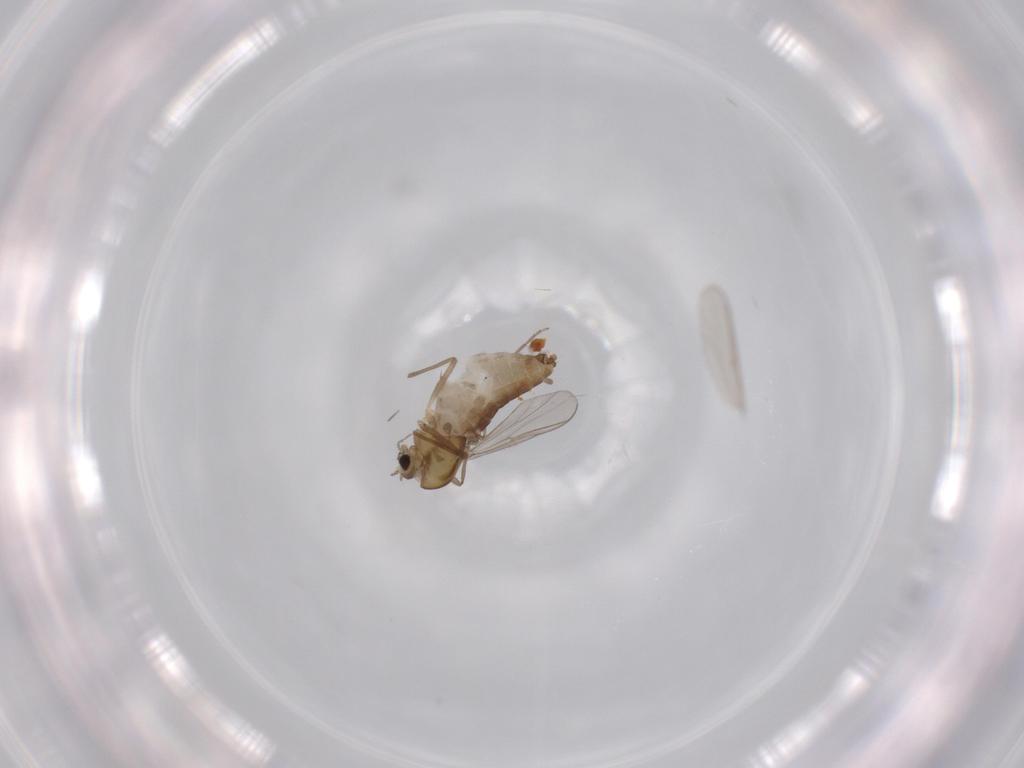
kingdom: Animalia
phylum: Arthropoda
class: Insecta
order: Diptera
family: Chironomidae
